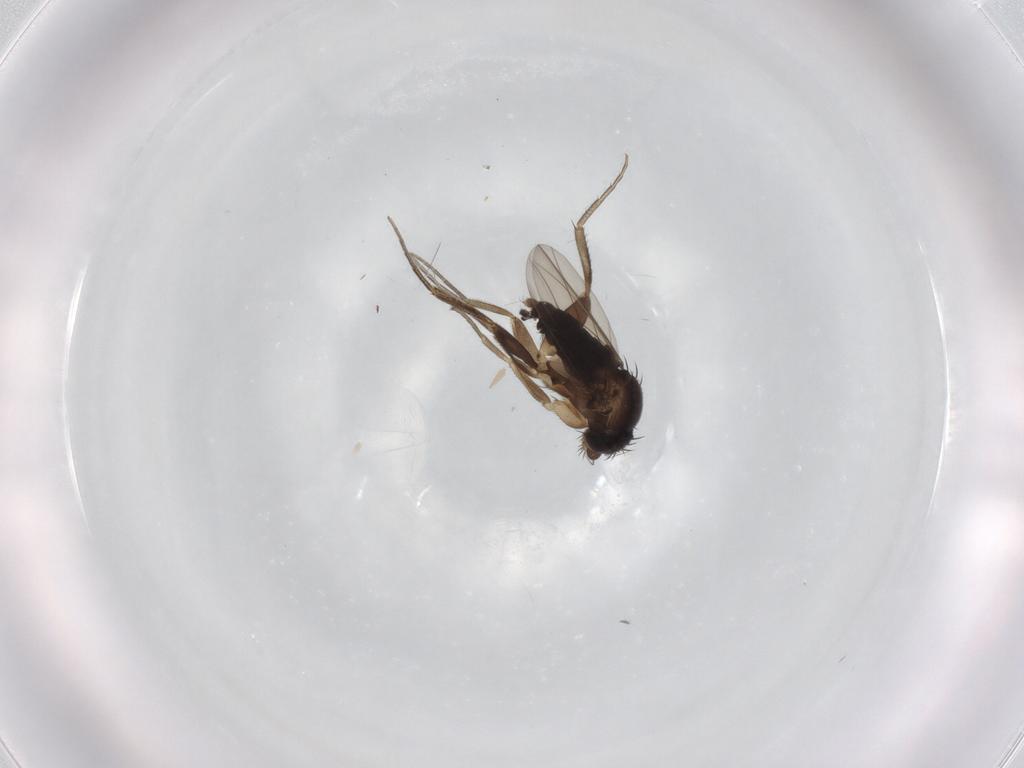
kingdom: Animalia
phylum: Arthropoda
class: Insecta
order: Diptera
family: Phoridae
